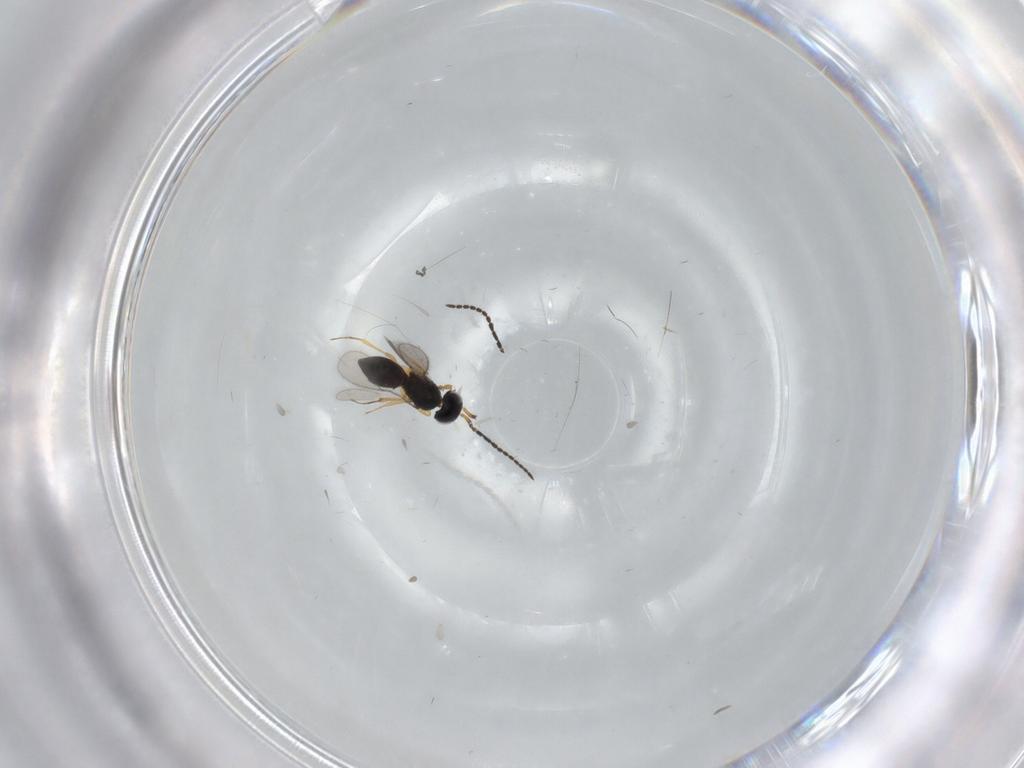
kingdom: Animalia
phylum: Arthropoda
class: Insecta
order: Hymenoptera
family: Scelionidae
